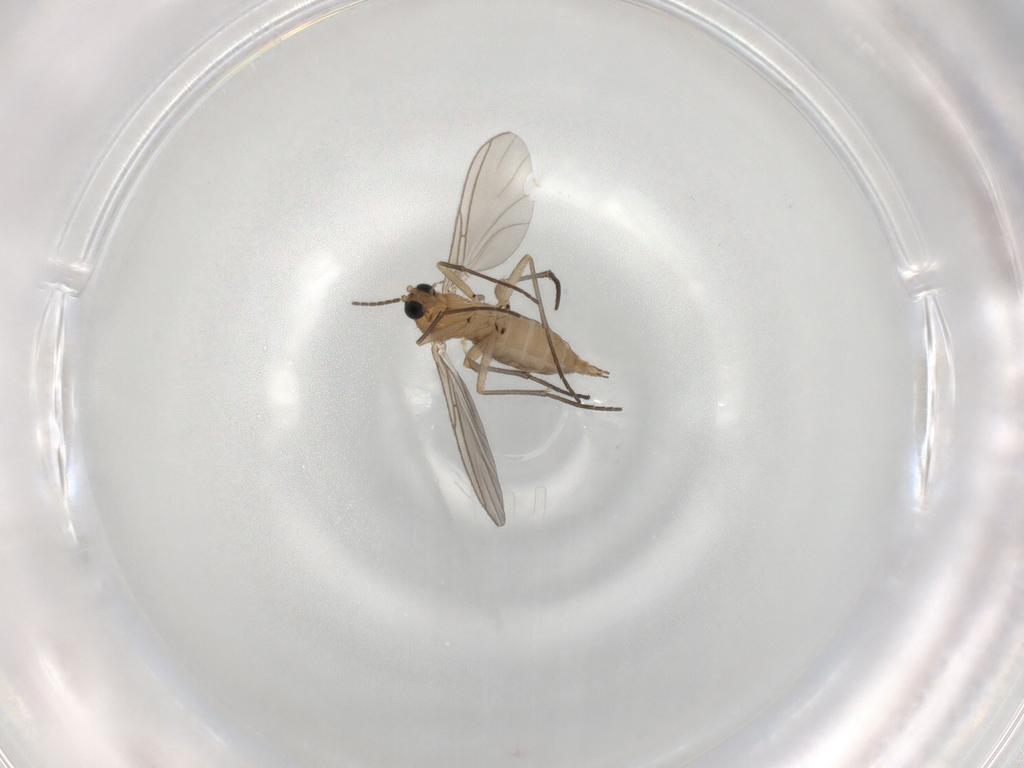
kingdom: Animalia
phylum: Arthropoda
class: Insecta
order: Diptera
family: Sciaridae
